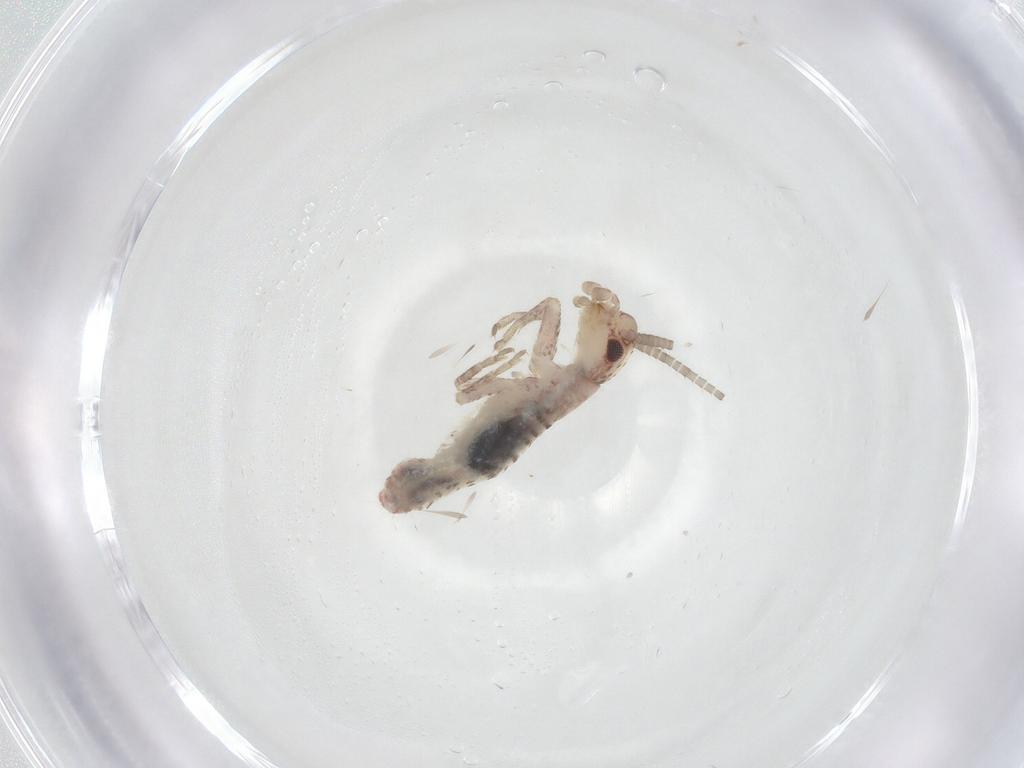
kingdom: Animalia
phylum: Arthropoda
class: Insecta
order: Orthoptera
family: Mogoplistidae
